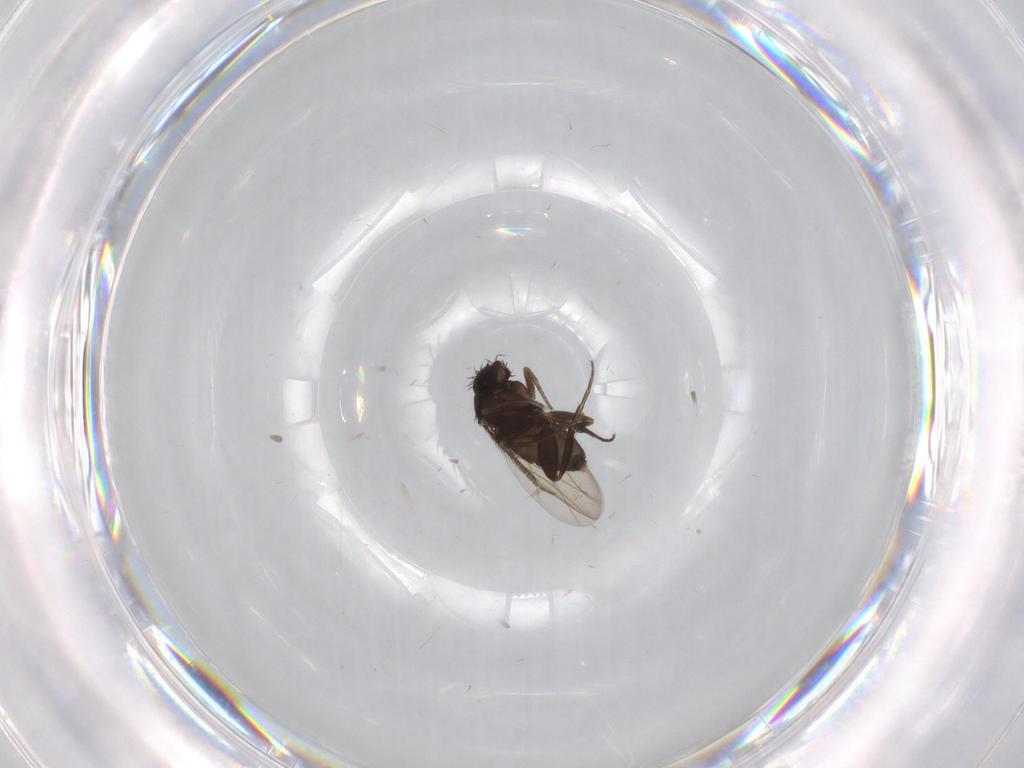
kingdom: Animalia
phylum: Arthropoda
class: Insecta
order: Diptera
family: Phoridae
